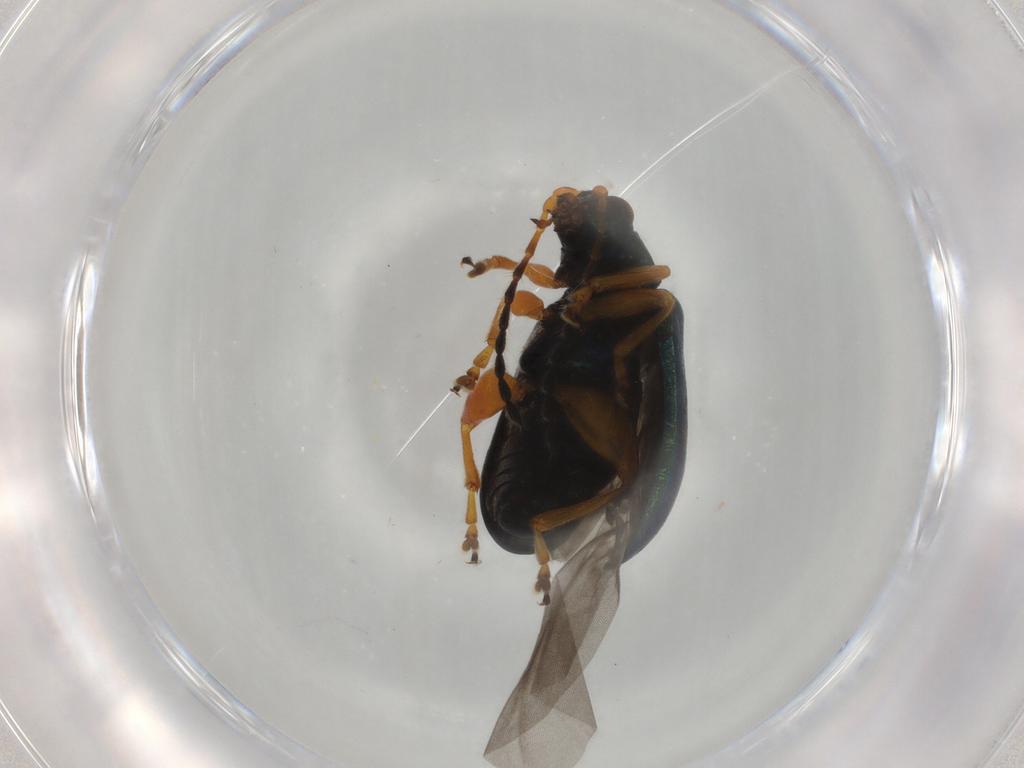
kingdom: Animalia
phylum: Arthropoda
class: Insecta
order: Coleoptera
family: Chrysomelidae
